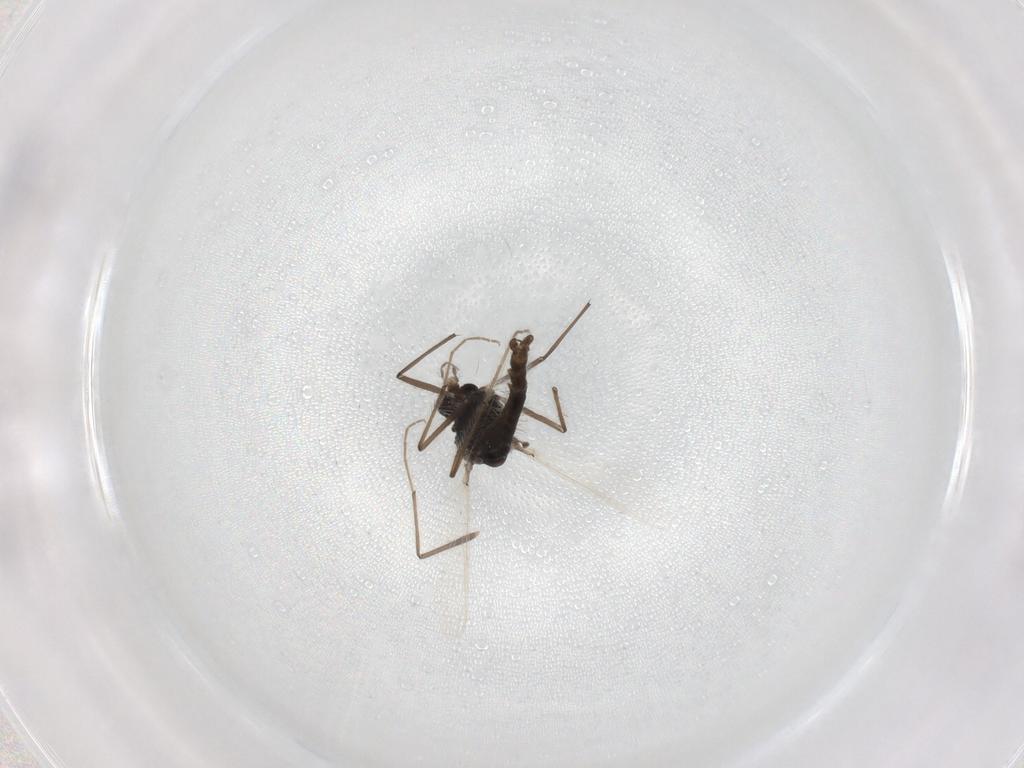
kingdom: Animalia
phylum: Arthropoda
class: Insecta
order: Diptera
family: Chironomidae
